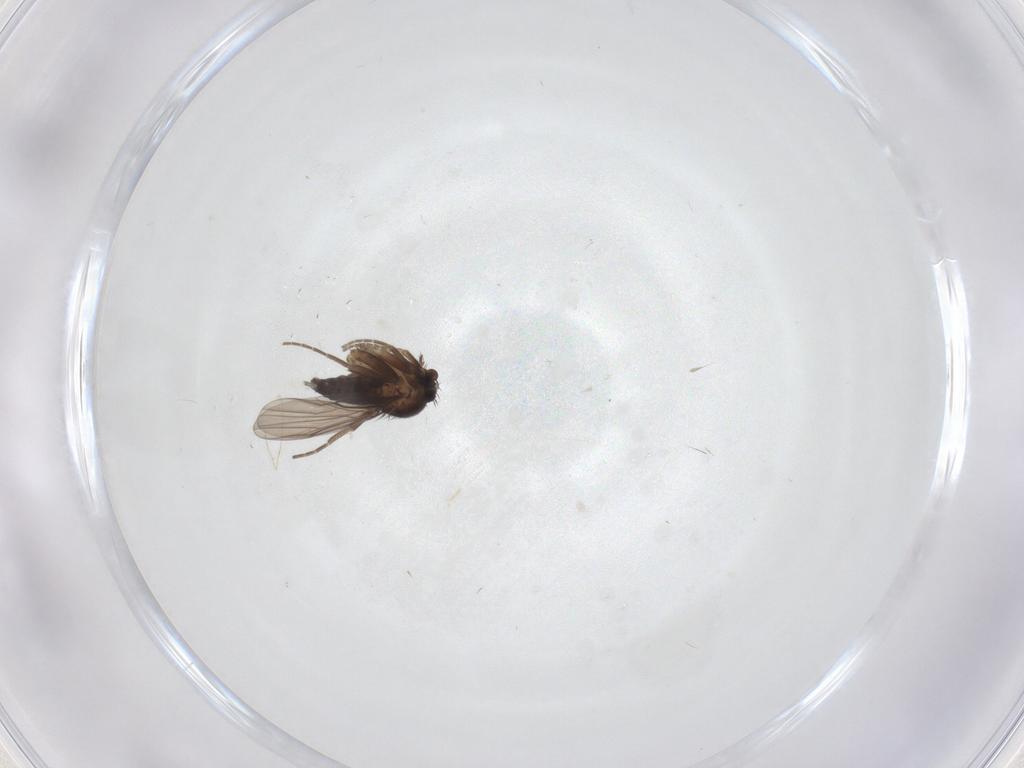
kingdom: Animalia
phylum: Arthropoda
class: Insecta
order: Diptera
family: Phoridae
